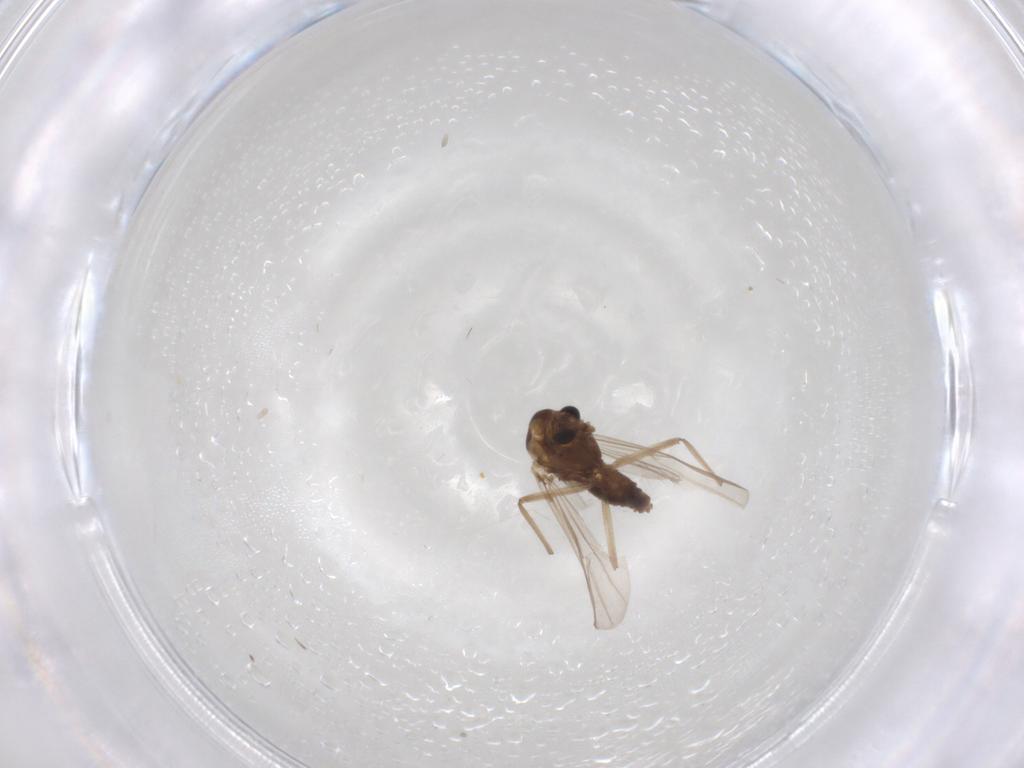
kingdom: Animalia
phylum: Arthropoda
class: Insecta
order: Diptera
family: Chironomidae
